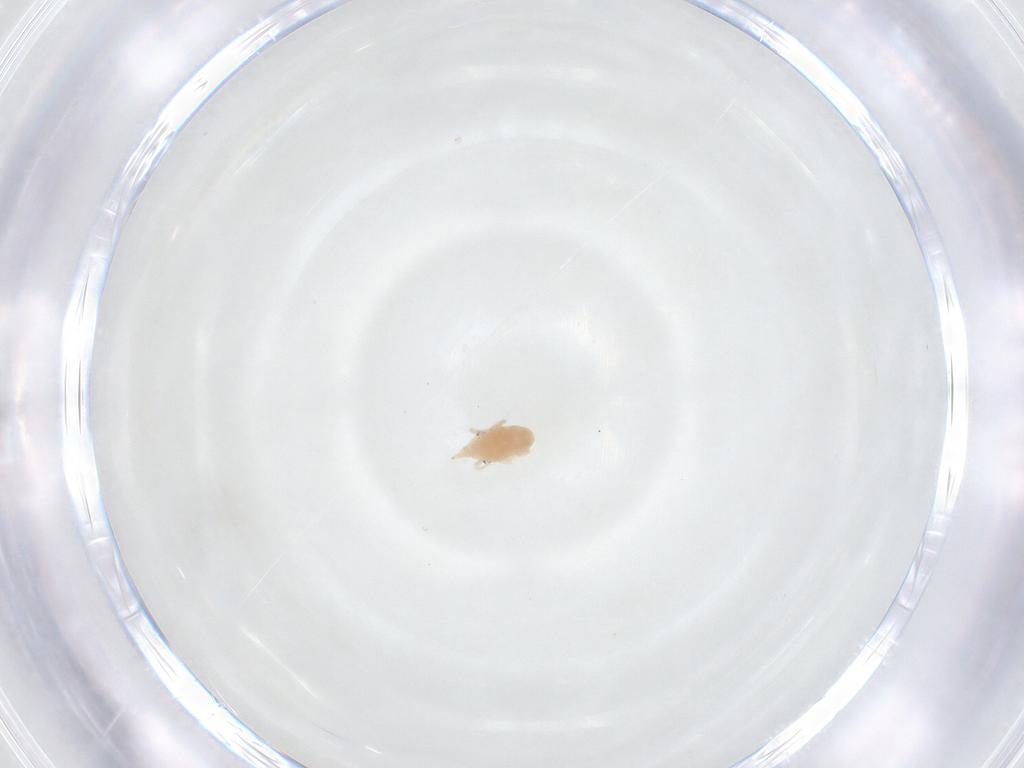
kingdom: Animalia
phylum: Arthropoda
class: Arachnida
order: Trombidiformes
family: Bdellidae
